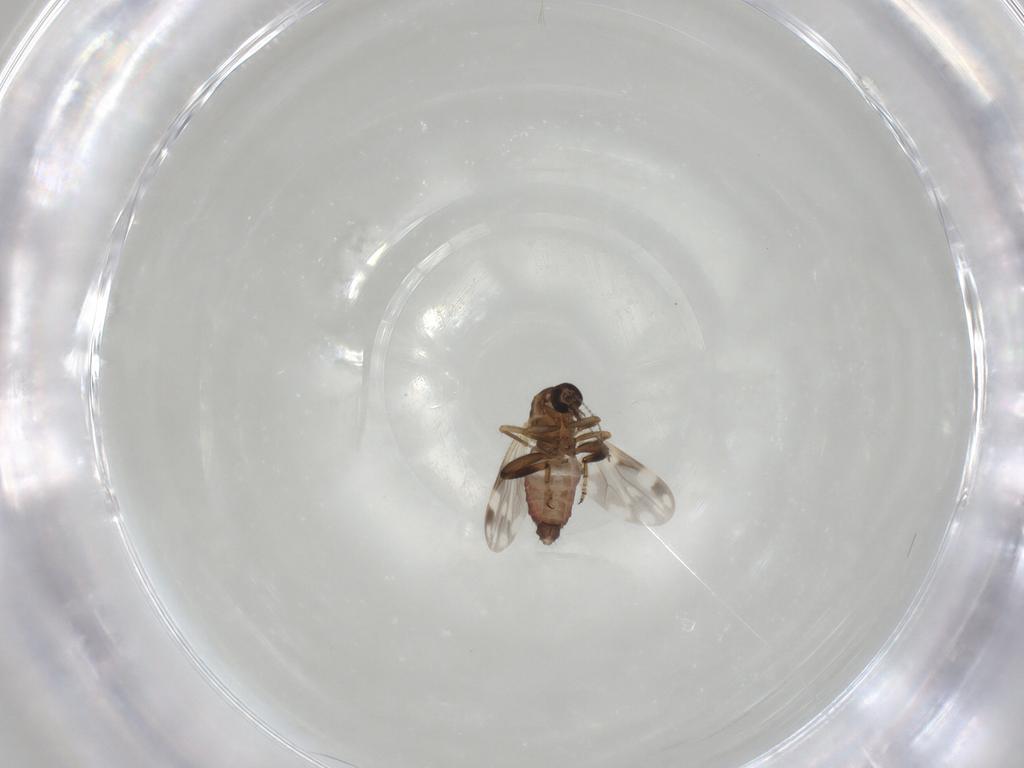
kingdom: Animalia
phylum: Arthropoda
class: Insecta
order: Diptera
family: Ceratopogonidae
